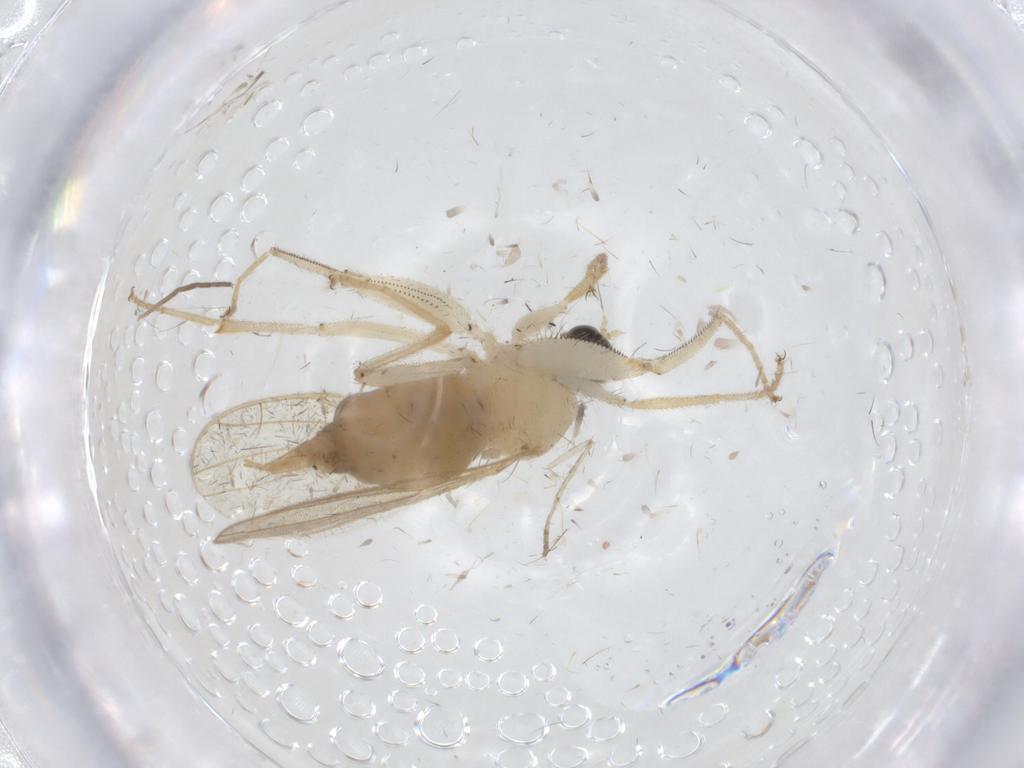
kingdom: Animalia
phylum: Arthropoda
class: Insecta
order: Diptera
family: Hybotidae
